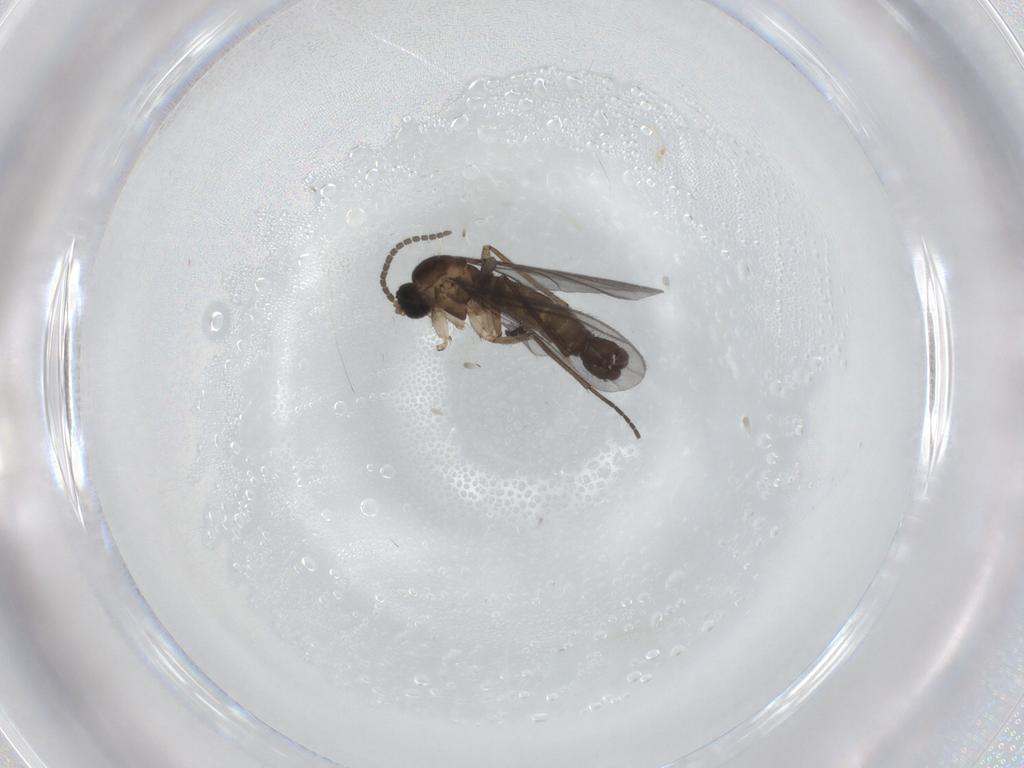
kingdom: Animalia
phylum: Arthropoda
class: Insecta
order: Diptera
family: Sciaridae
